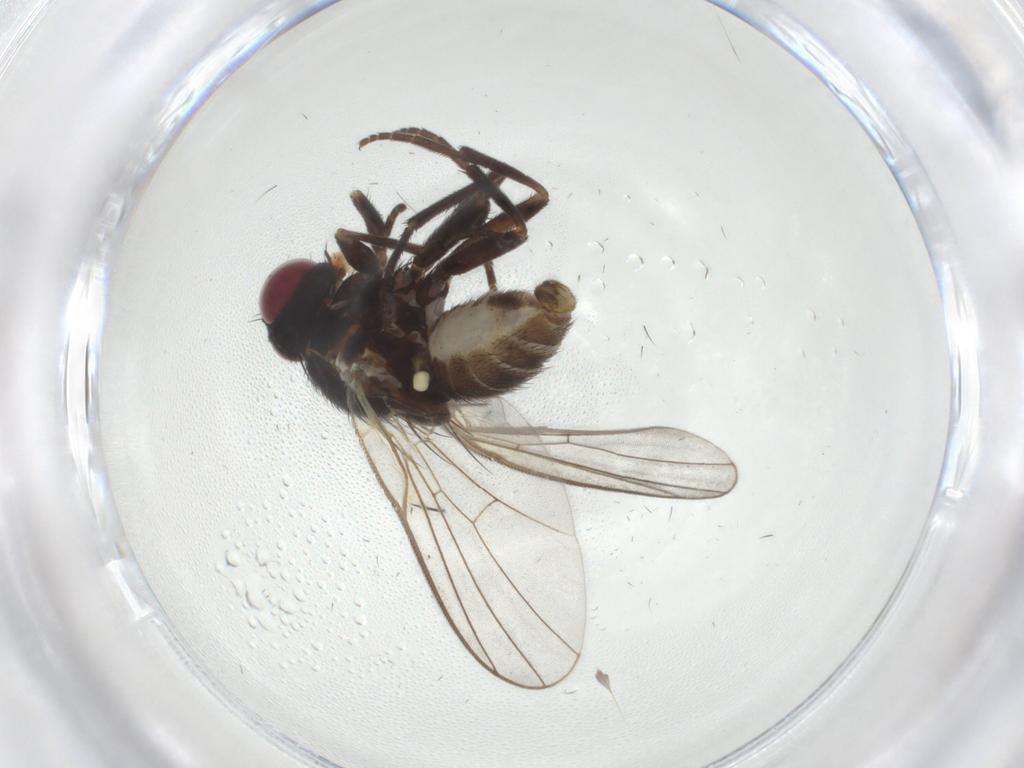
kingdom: Animalia
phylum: Arthropoda
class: Insecta
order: Diptera
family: Agromyzidae
